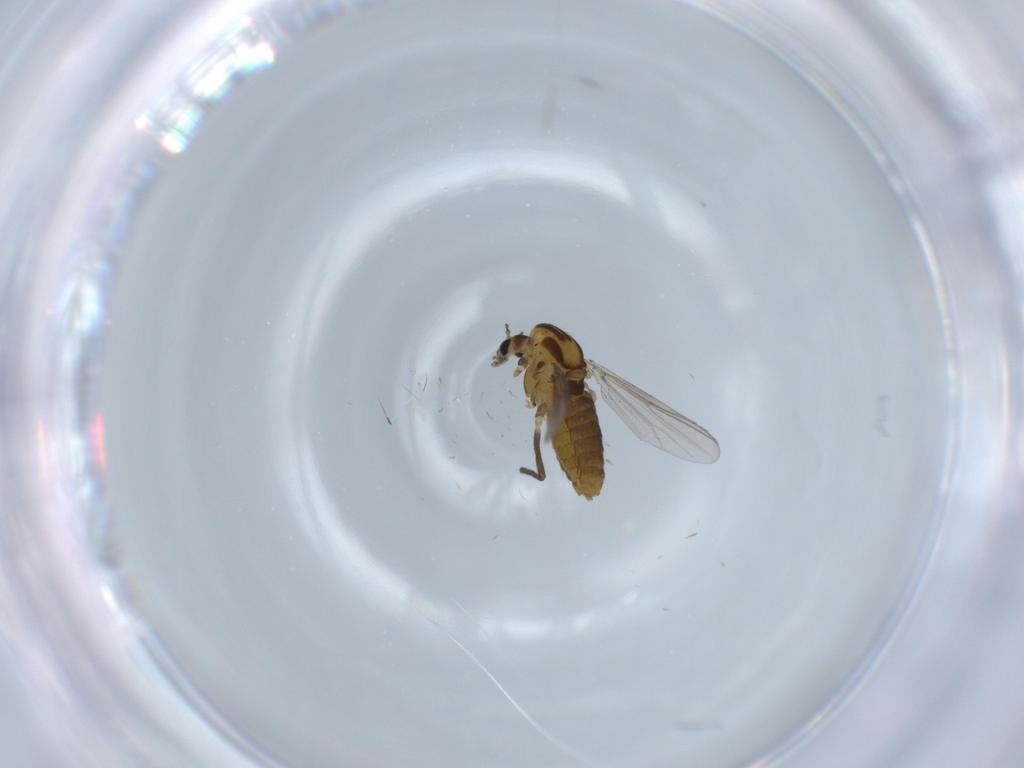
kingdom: Animalia
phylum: Arthropoda
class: Insecta
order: Diptera
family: Chironomidae
